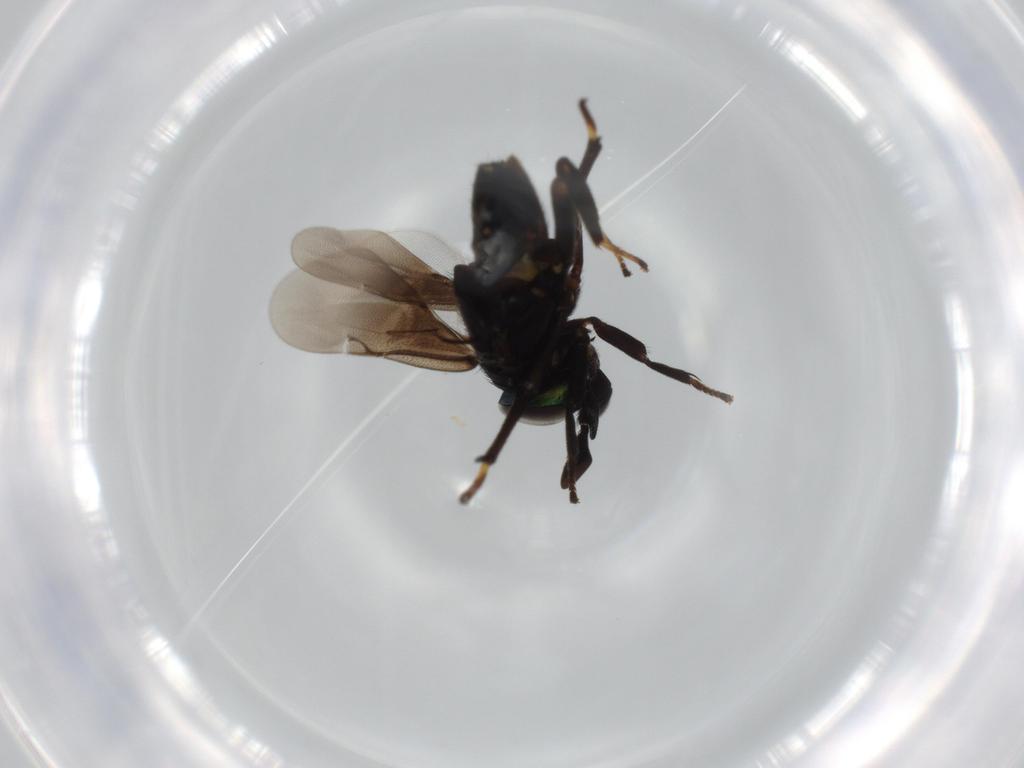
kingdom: Animalia
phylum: Arthropoda
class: Insecta
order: Hymenoptera
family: Encyrtidae
